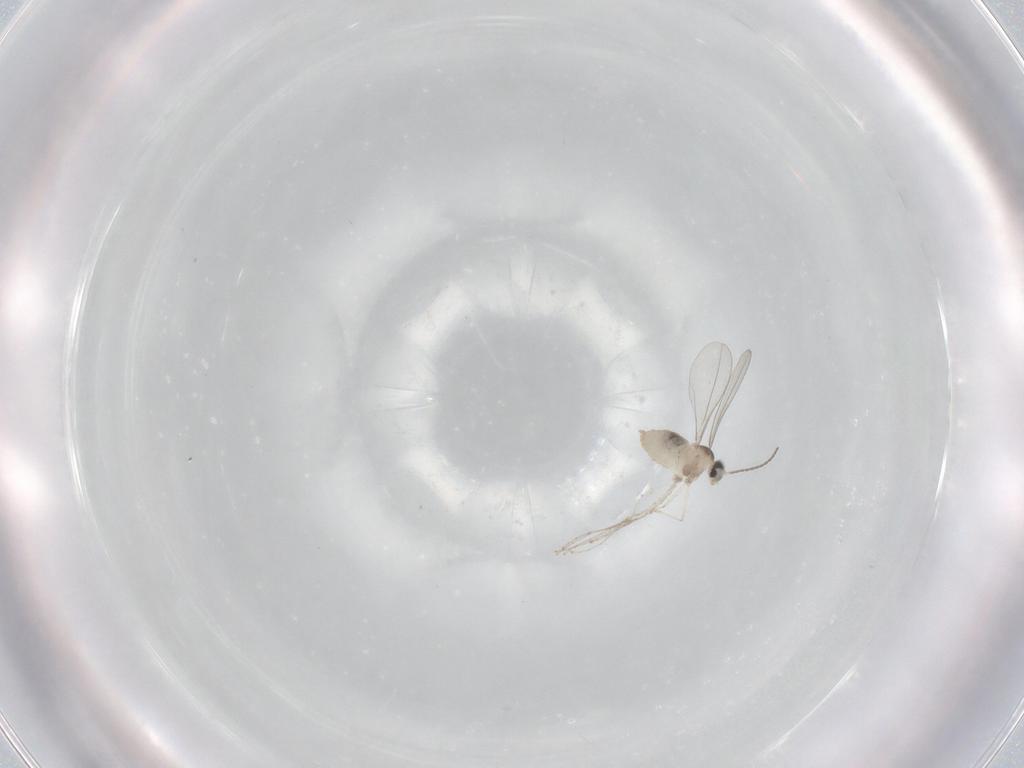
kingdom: Animalia
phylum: Arthropoda
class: Insecta
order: Diptera
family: Cecidomyiidae
